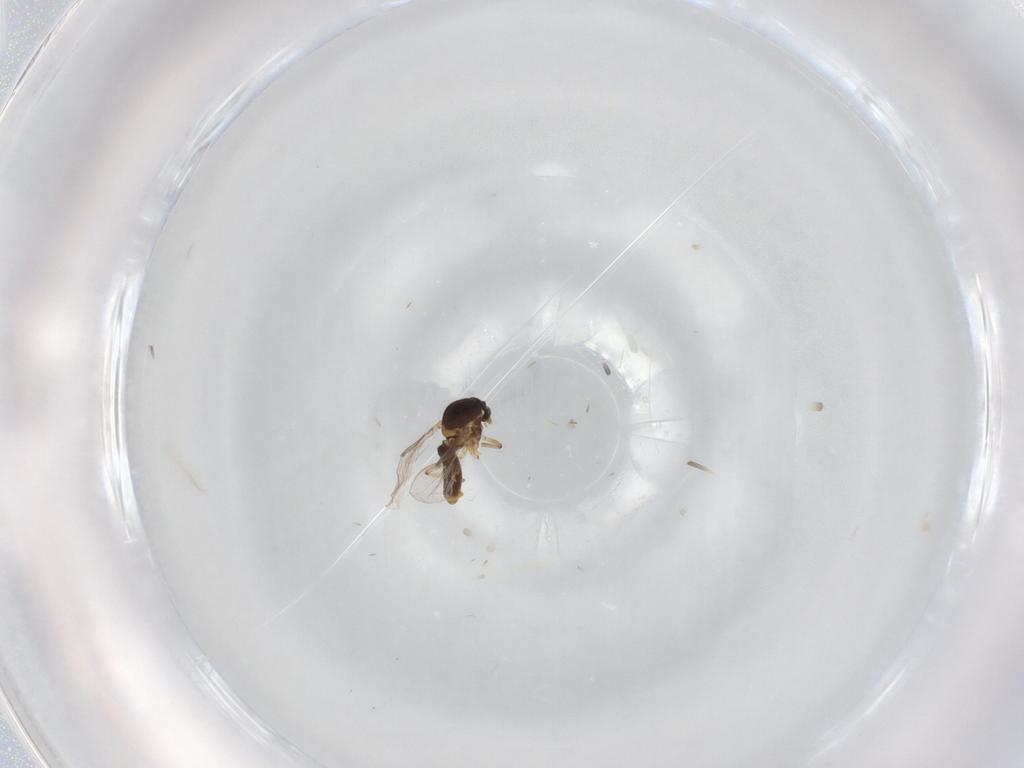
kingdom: Animalia
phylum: Arthropoda
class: Insecta
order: Diptera
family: Ceratopogonidae
